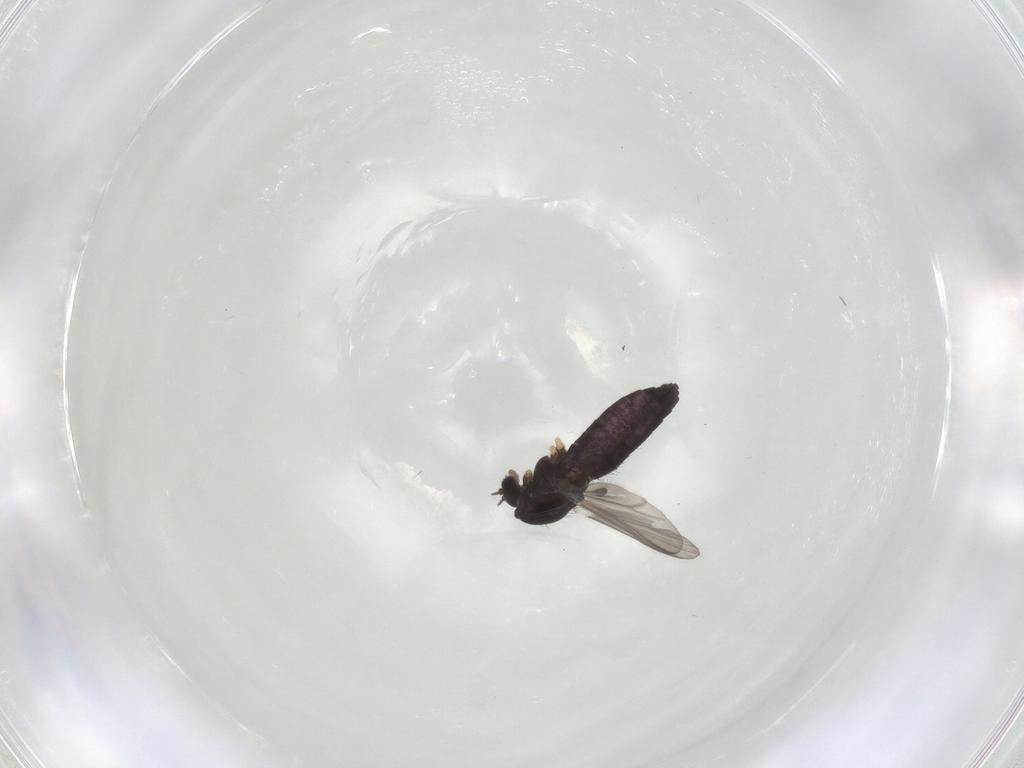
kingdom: Animalia
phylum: Arthropoda
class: Insecta
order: Diptera
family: Chironomidae
